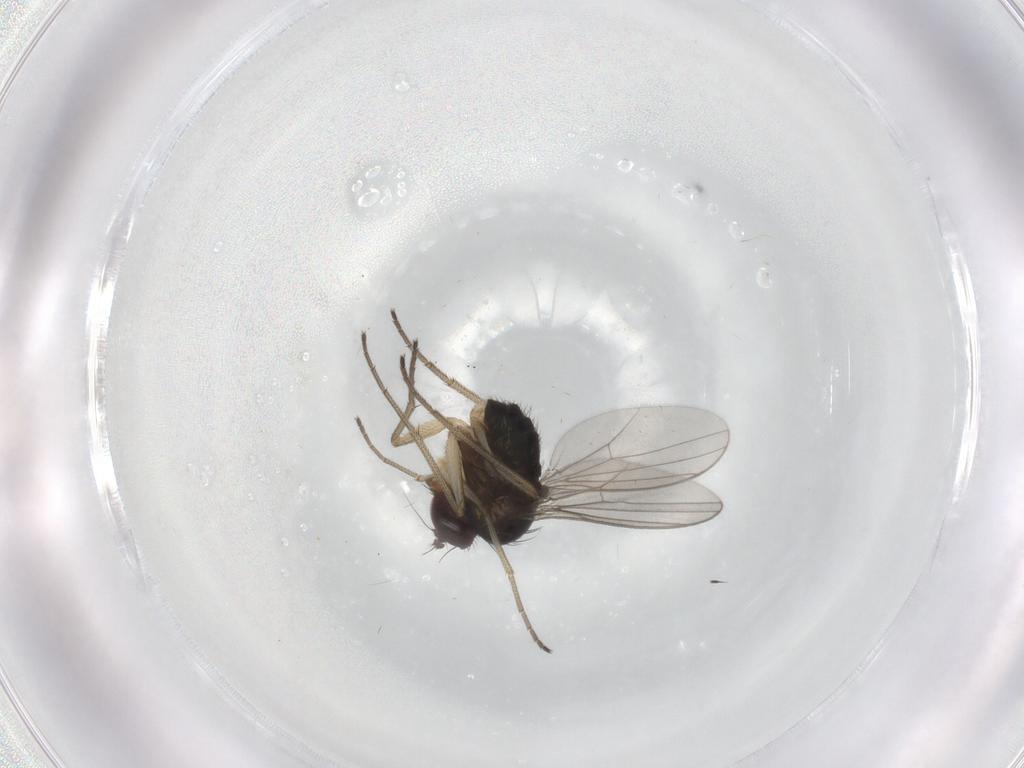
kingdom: Animalia
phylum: Arthropoda
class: Insecta
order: Diptera
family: Dolichopodidae
